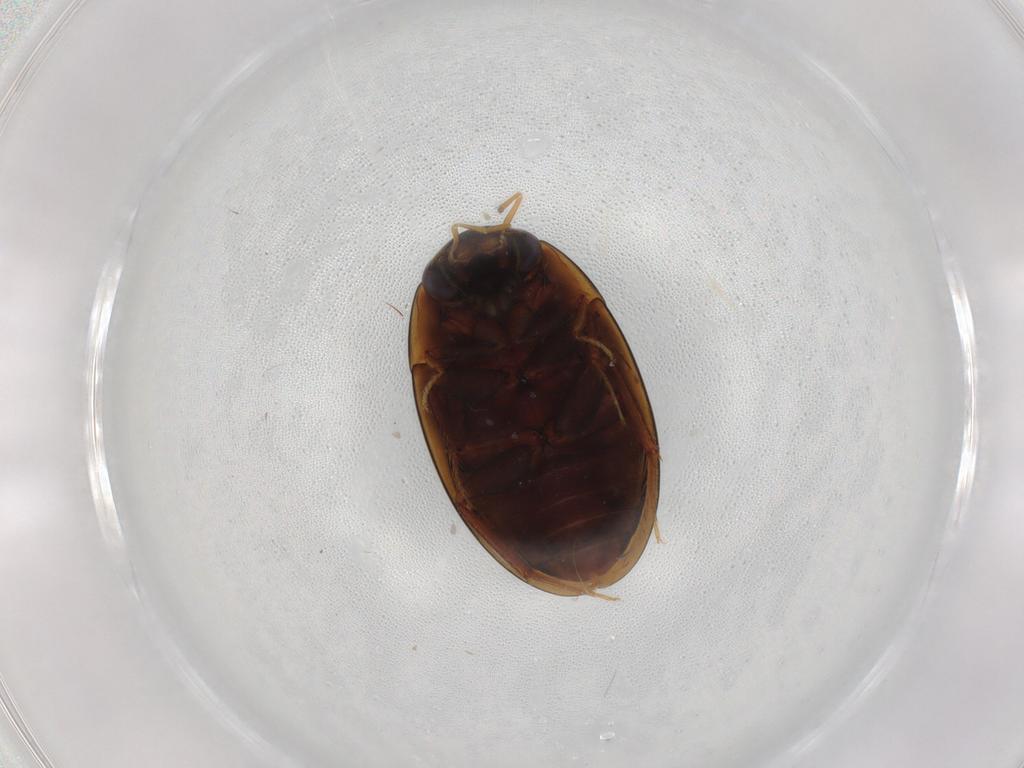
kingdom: Animalia
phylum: Arthropoda
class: Insecta
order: Coleoptera
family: Hydrophilidae
